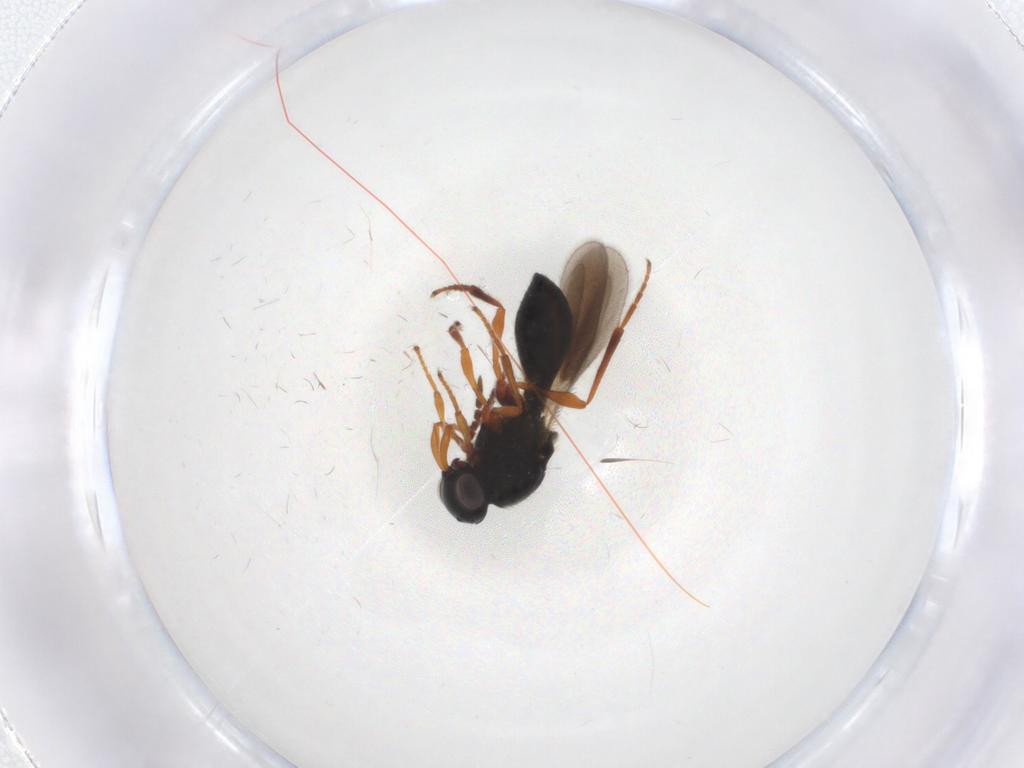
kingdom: Animalia
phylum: Arthropoda
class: Insecta
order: Hymenoptera
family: Platygastridae
